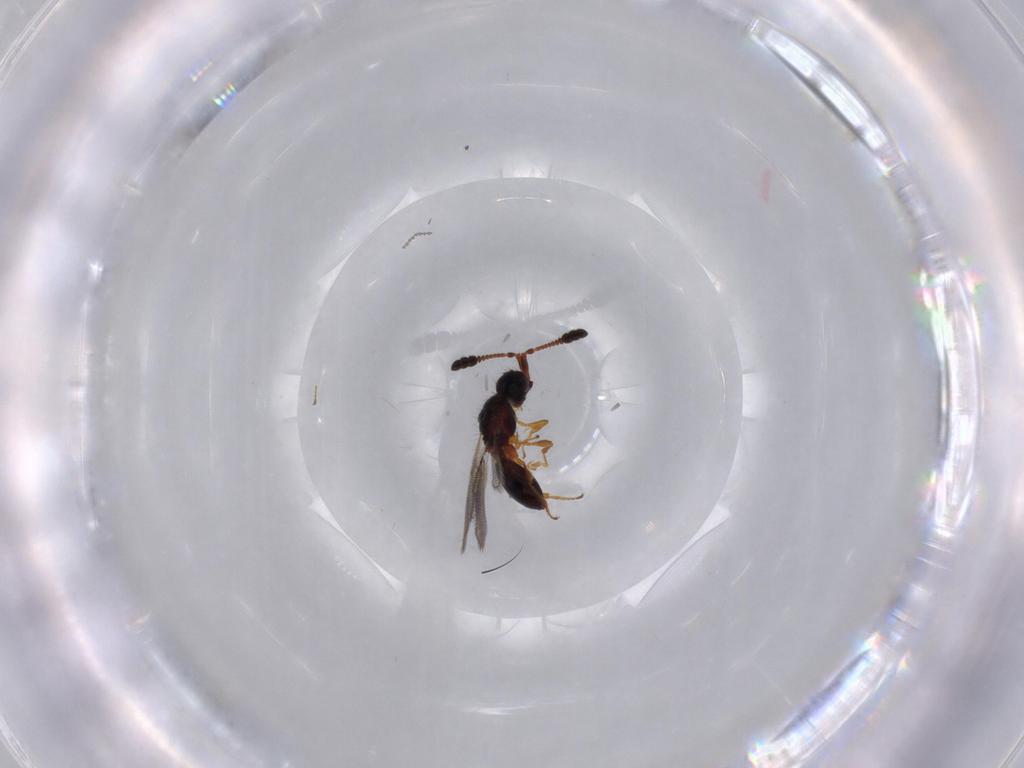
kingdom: Animalia
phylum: Arthropoda
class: Insecta
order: Hymenoptera
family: Diapriidae
